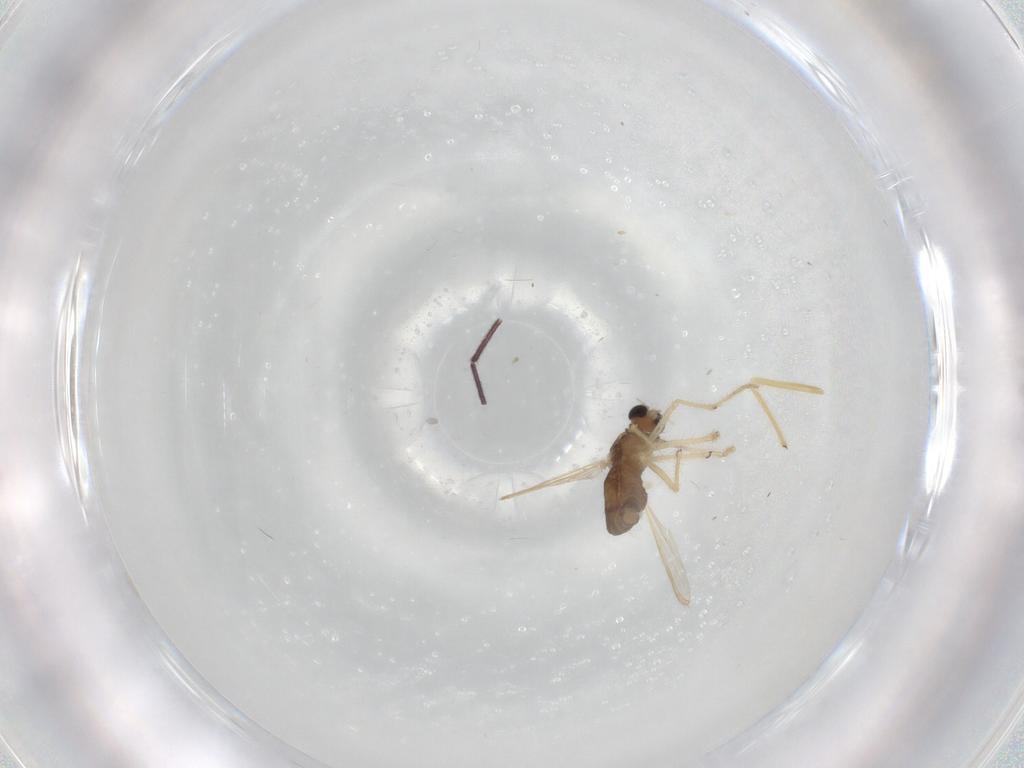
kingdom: Animalia
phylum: Arthropoda
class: Insecta
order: Diptera
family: Chironomidae
